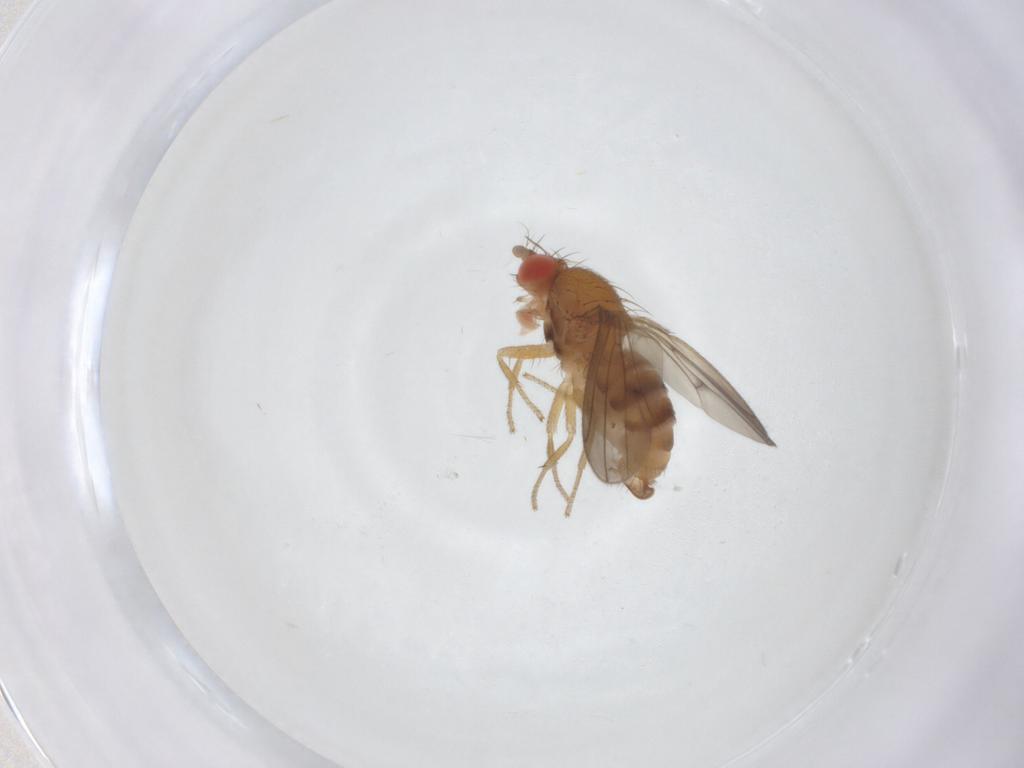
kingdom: Animalia
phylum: Arthropoda
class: Insecta
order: Diptera
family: Drosophilidae
